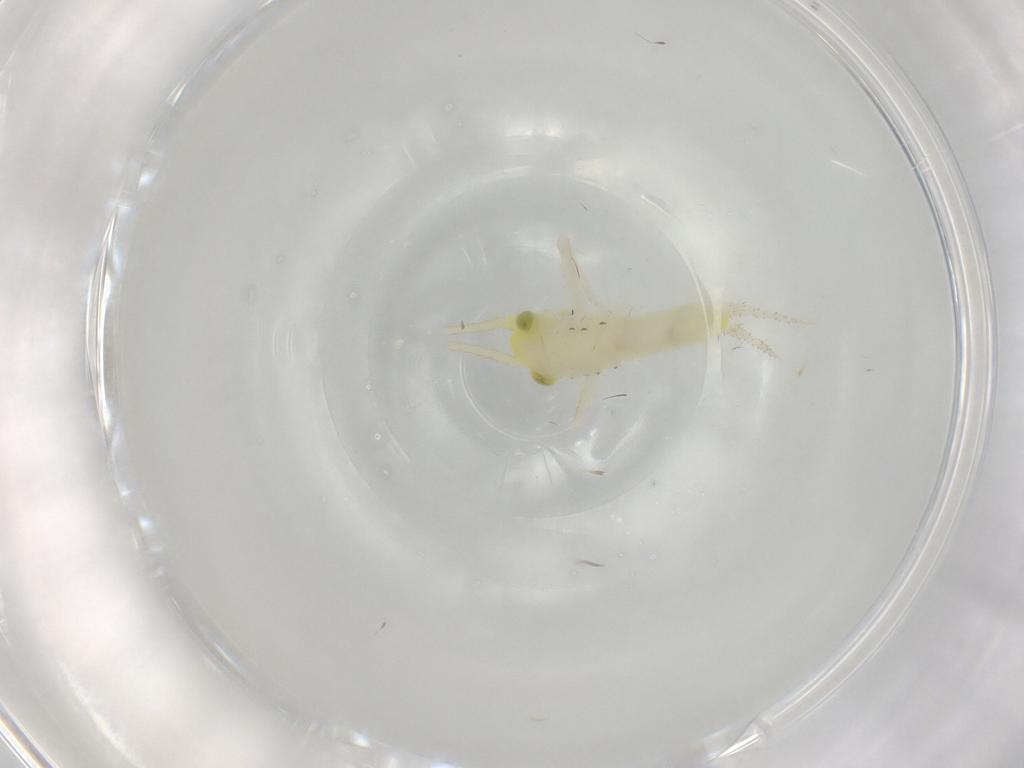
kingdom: Animalia
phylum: Arthropoda
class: Insecta
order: Orthoptera
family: Trigonidiidae
